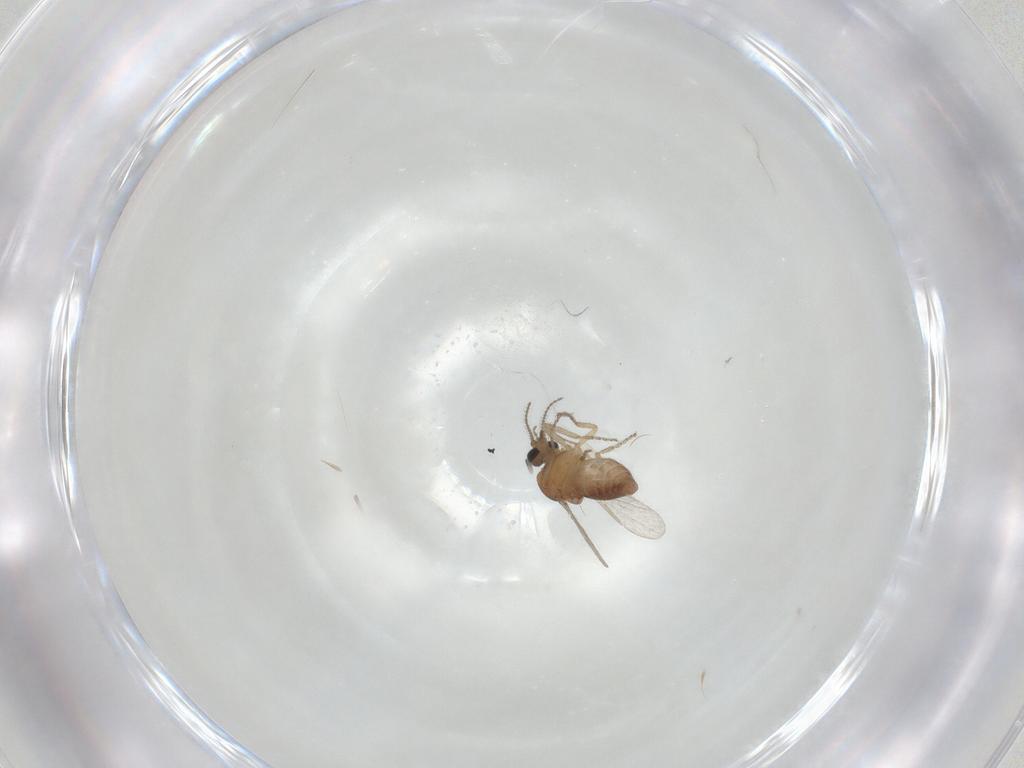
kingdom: Animalia
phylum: Arthropoda
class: Insecta
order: Diptera
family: Ceratopogonidae
